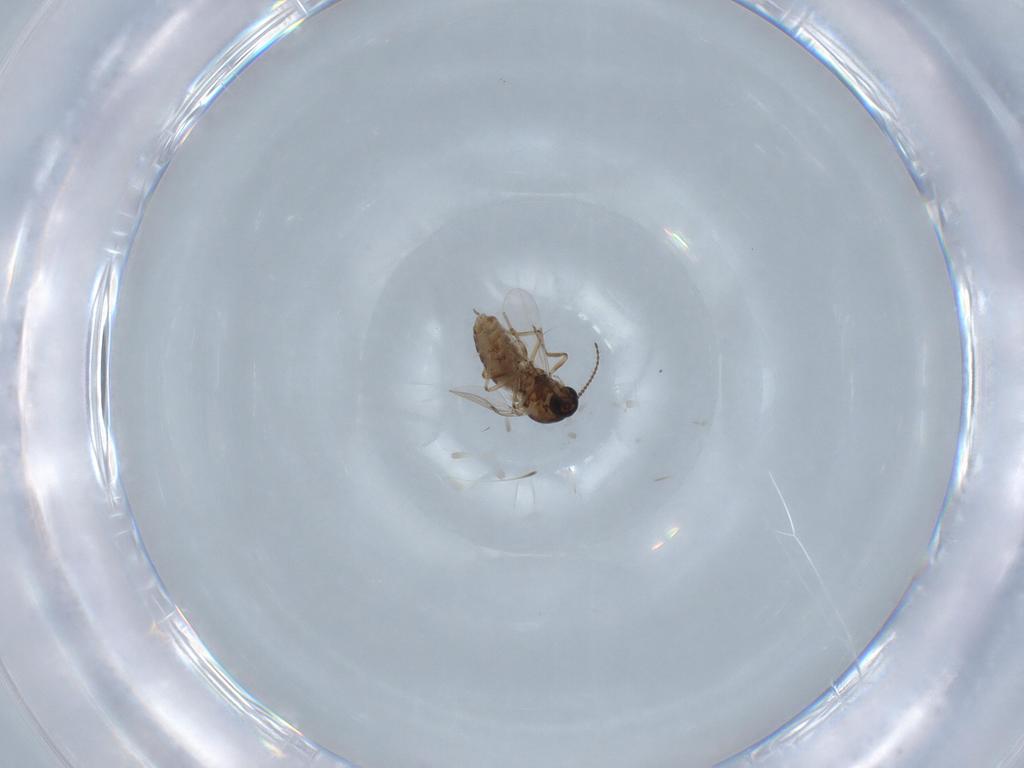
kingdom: Animalia
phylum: Arthropoda
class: Insecta
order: Diptera
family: Ceratopogonidae
